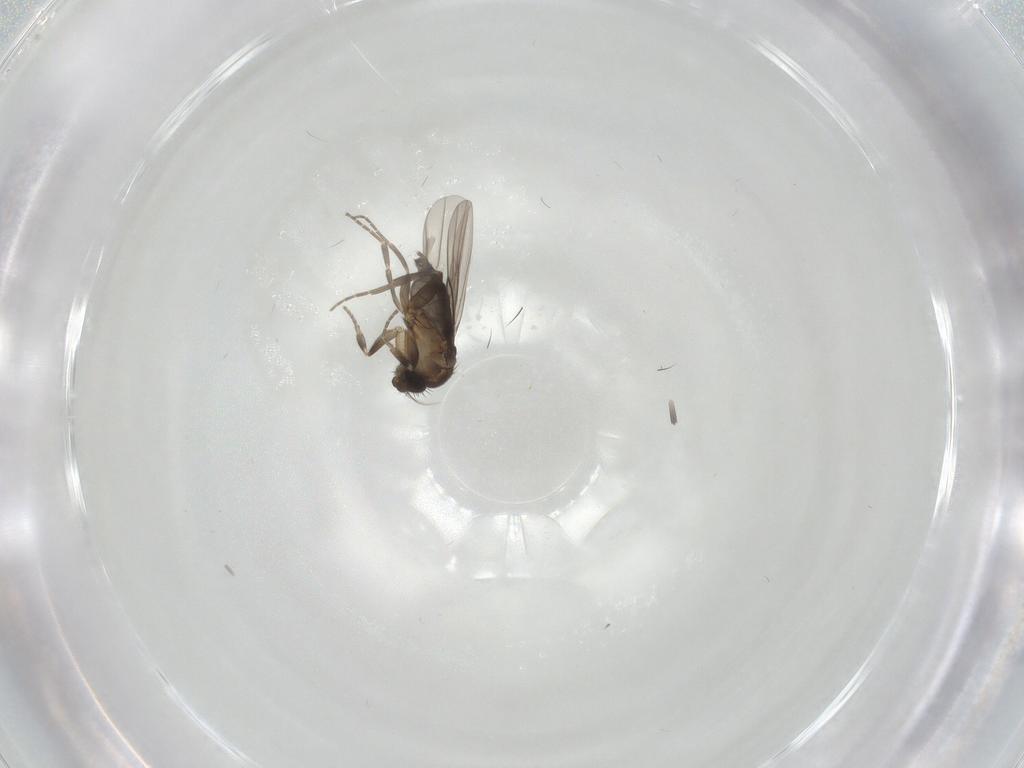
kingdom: Animalia
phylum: Arthropoda
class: Insecta
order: Diptera
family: Phoridae
